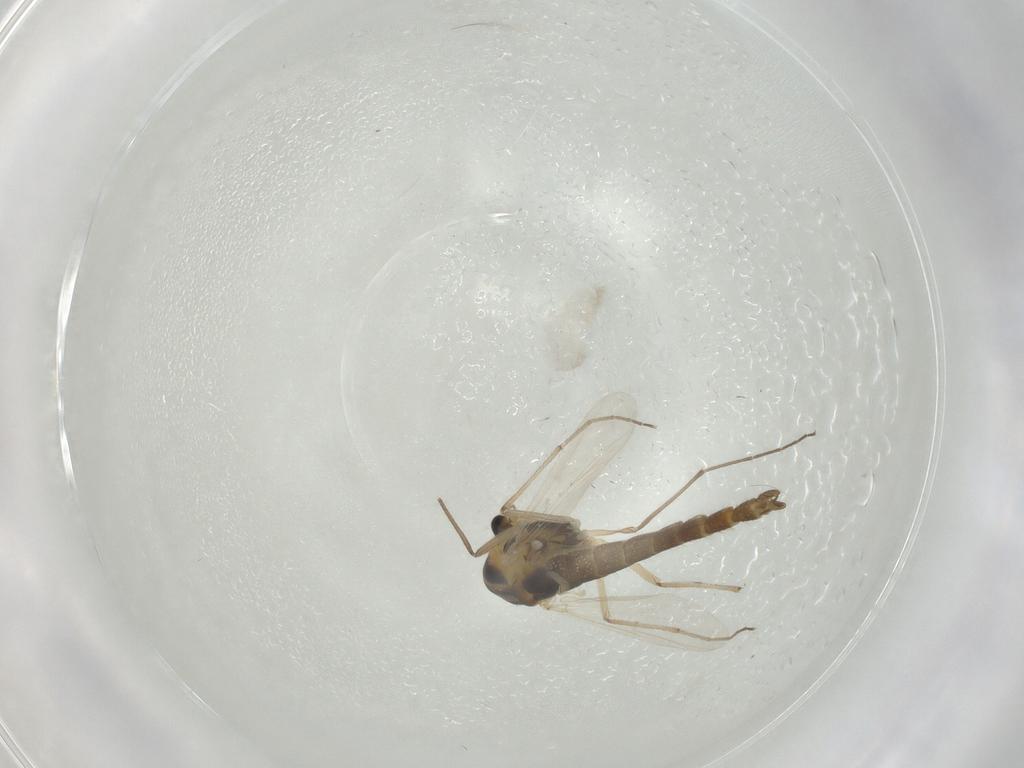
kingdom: Animalia
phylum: Arthropoda
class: Insecta
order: Diptera
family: Chironomidae
